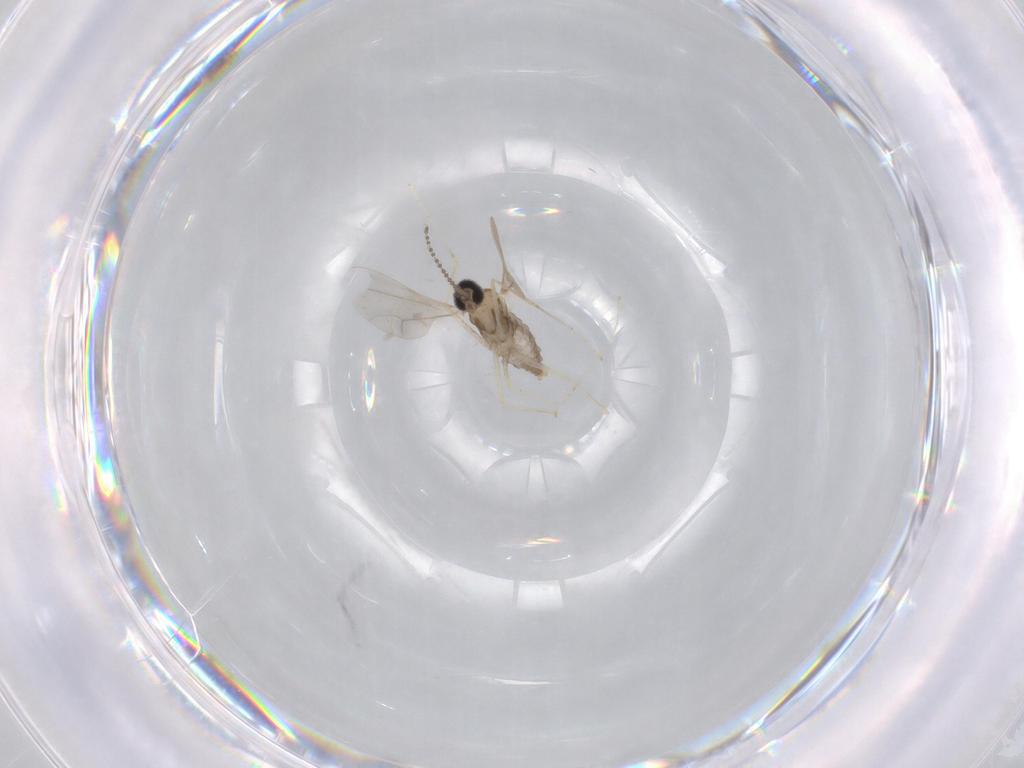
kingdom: Animalia
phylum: Arthropoda
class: Insecta
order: Diptera
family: Cecidomyiidae
